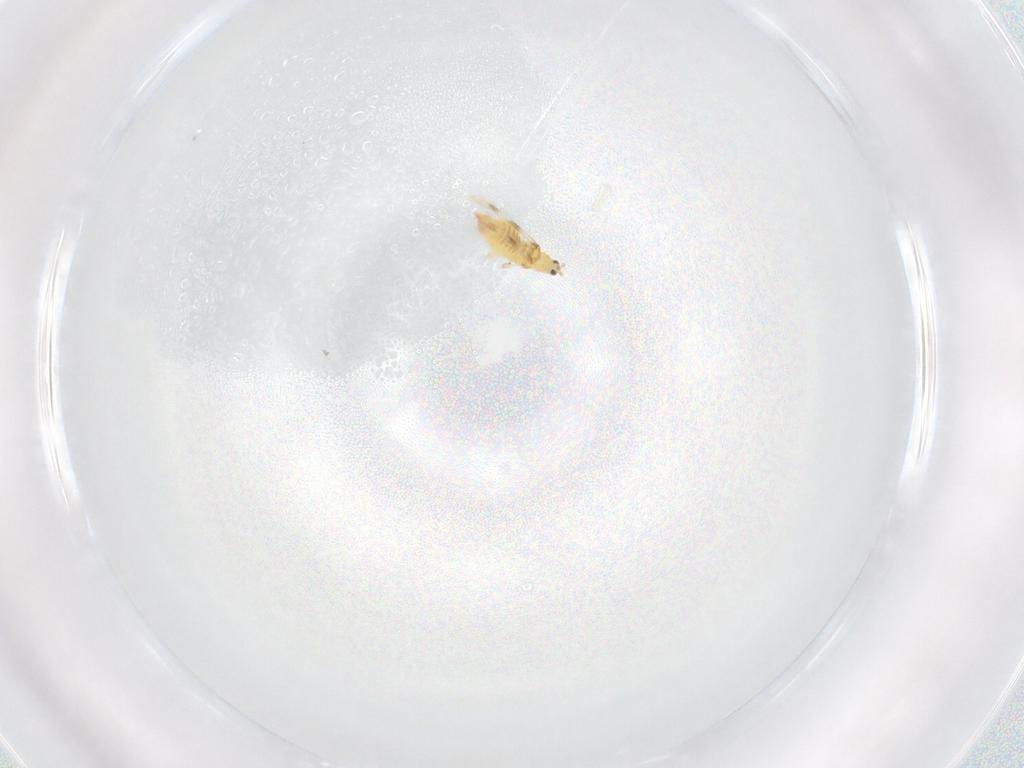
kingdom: Animalia
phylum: Arthropoda
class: Insecta
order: Thysanoptera
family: Thripidae
